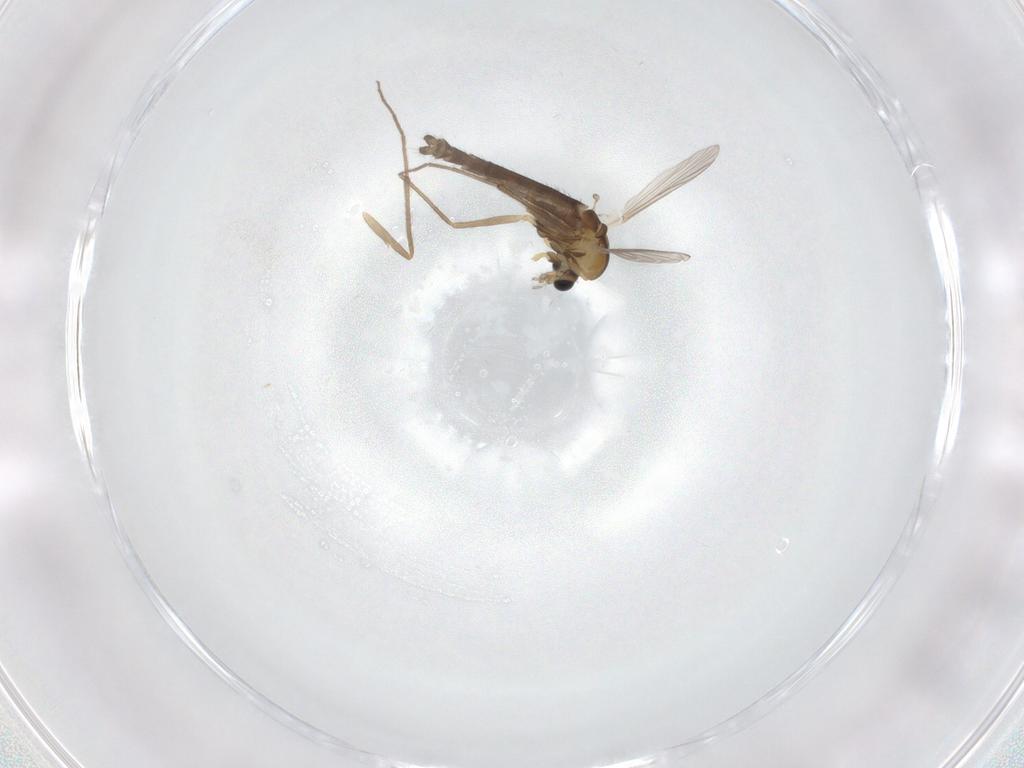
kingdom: Animalia
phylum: Arthropoda
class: Insecta
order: Diptera
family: Chironomidae
